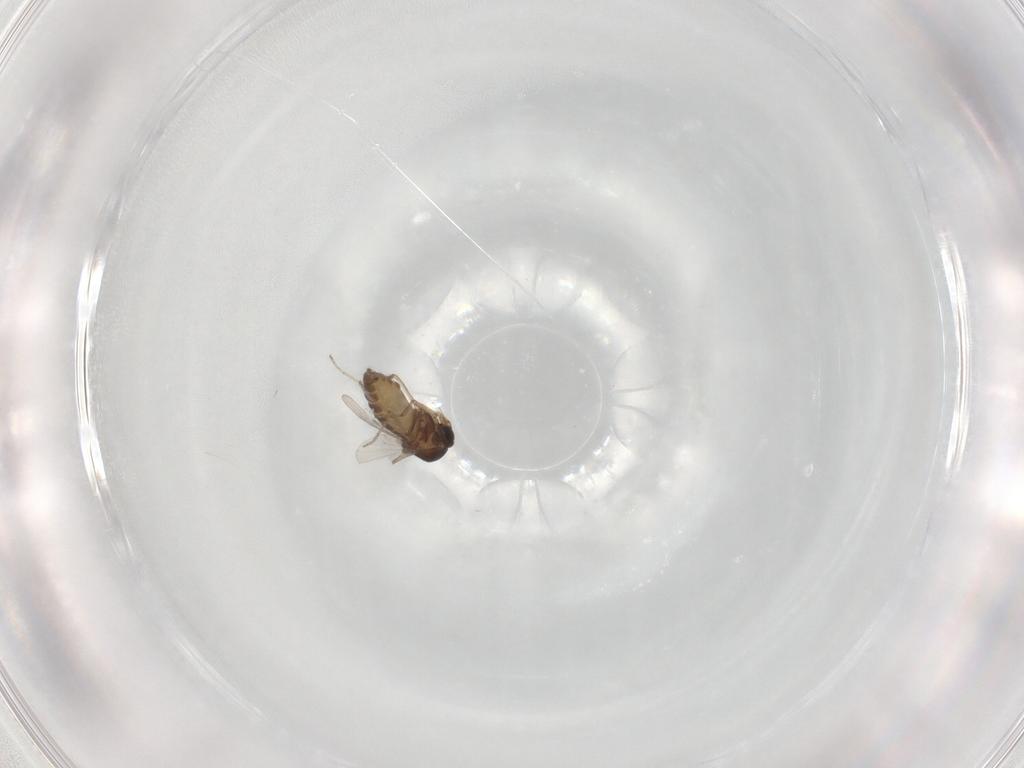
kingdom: Animalia
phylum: Arthropoda
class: Insecta
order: Diptera
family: Ceratopogonidae
